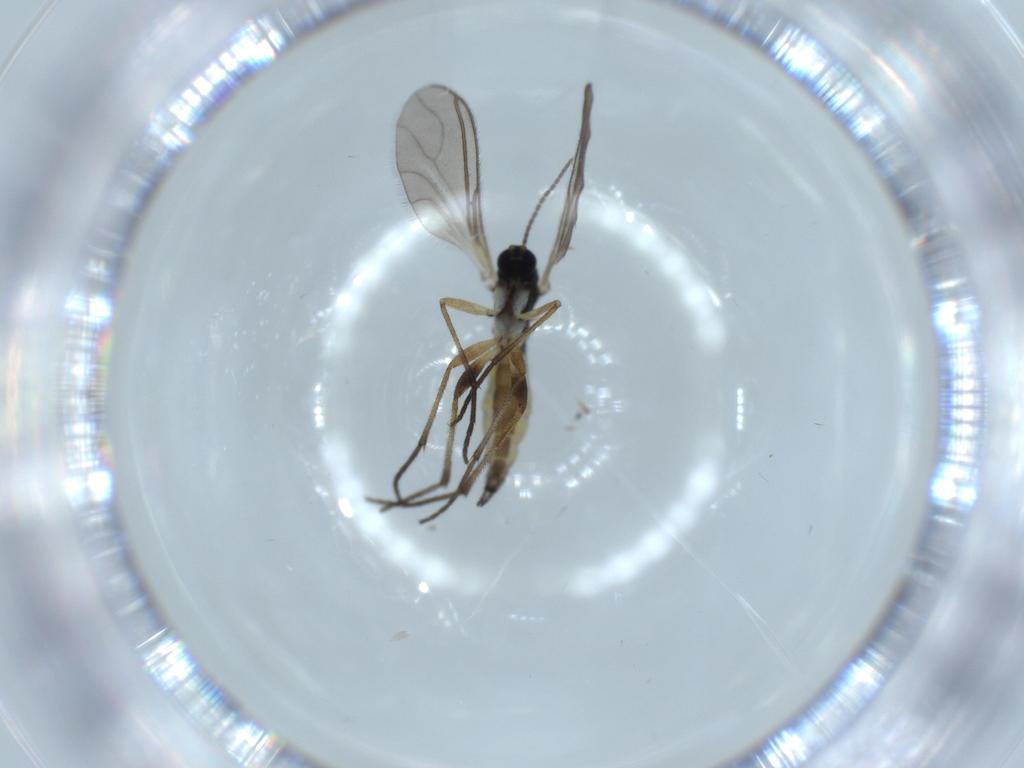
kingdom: Animalia
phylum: Arthropoda
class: Insecta
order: Diptera
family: Sciaridae
